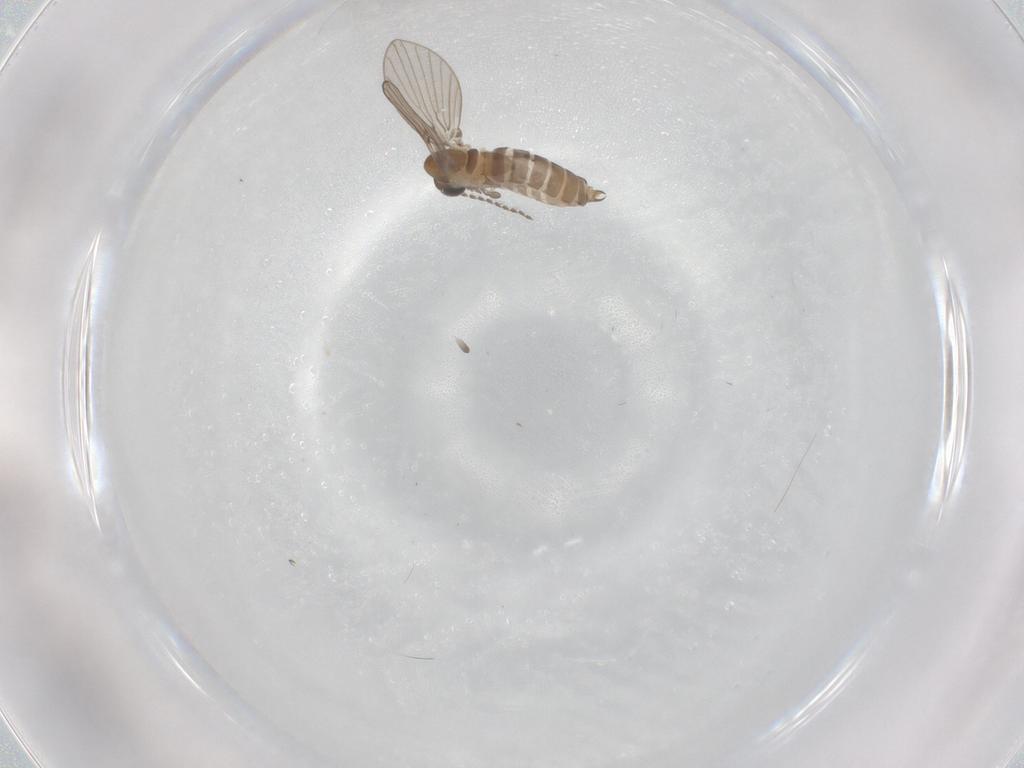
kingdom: Animalia
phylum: Arthropoda
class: Insecta
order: Diptera
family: Psychodidae
